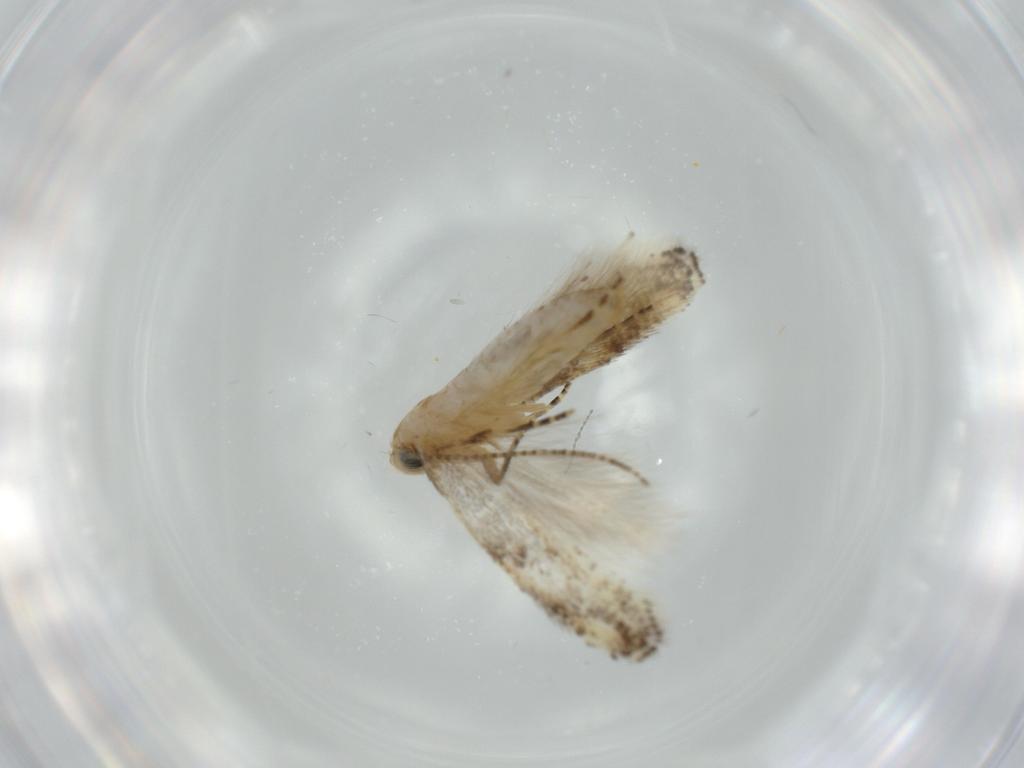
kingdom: Animalia
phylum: Arthropoda
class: Insecta
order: Lepidoptera
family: Bucculatricidae
